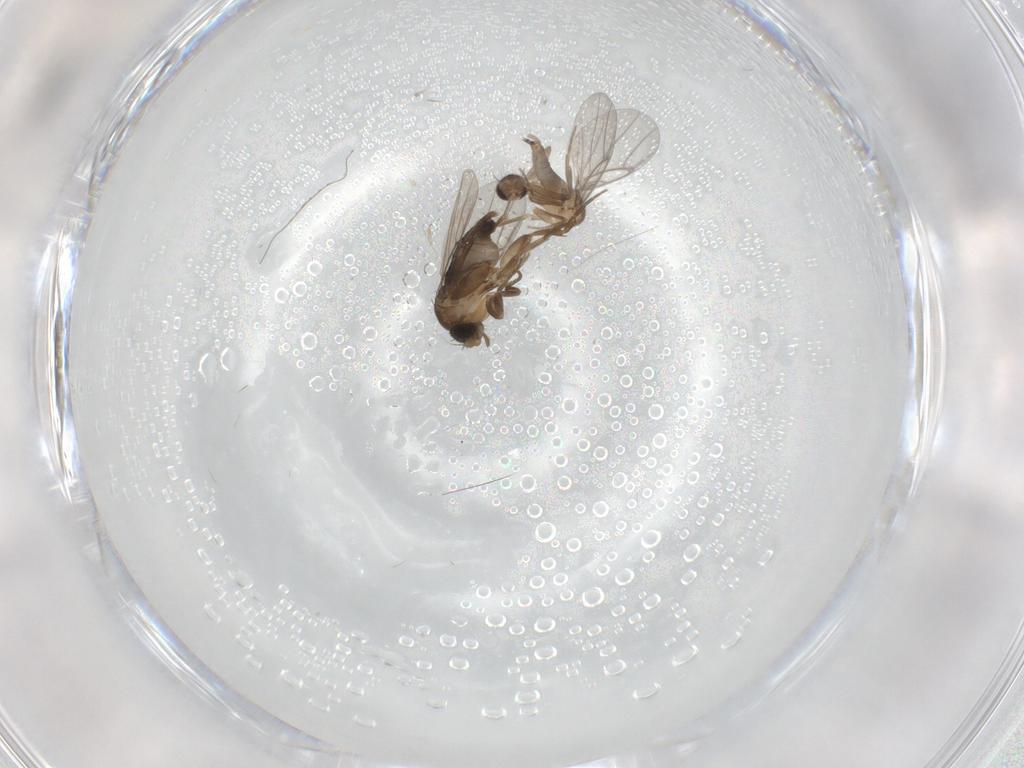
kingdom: Animalia
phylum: Arthropoda
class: Insecta
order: Diptera
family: Phoridae
